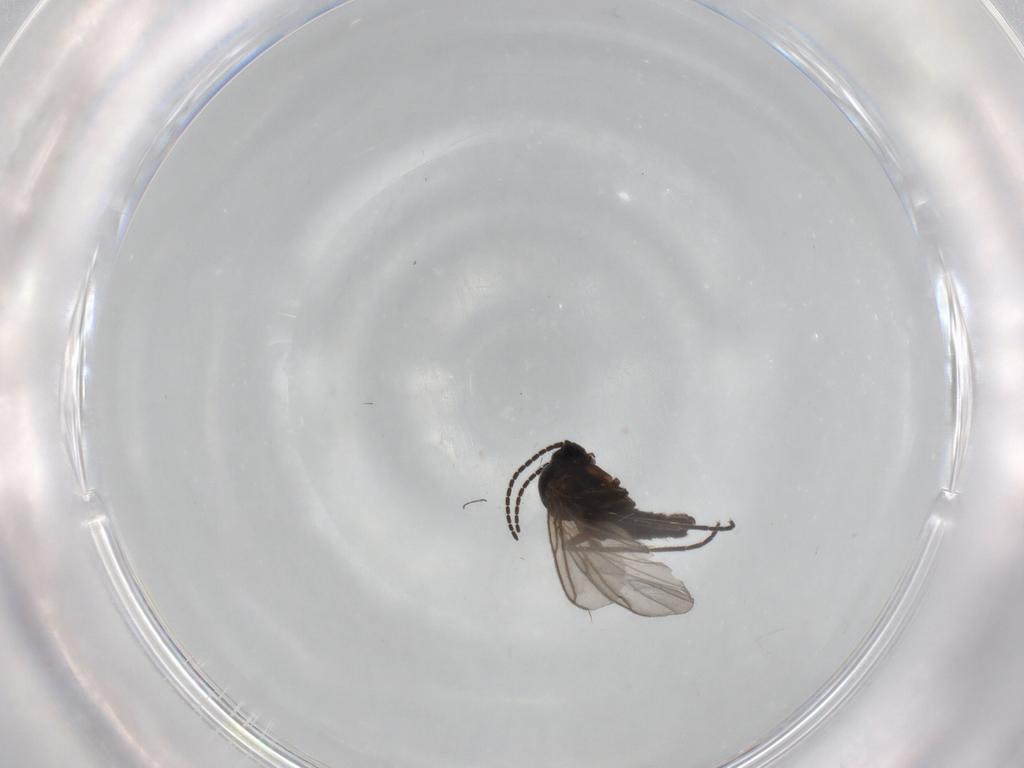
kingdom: Animalia
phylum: Arthropoda
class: Insecta
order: Diptera
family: Sciaridae
